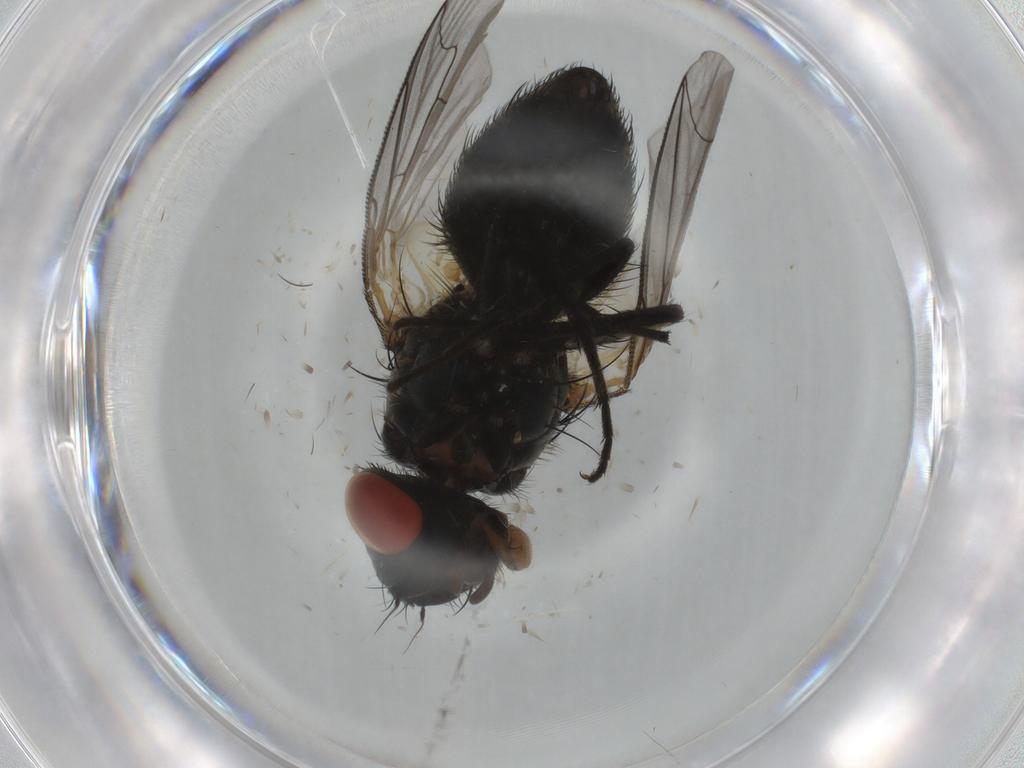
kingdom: Animalia
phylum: Arthropoda
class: Insecta
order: Diptera
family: Sarcophagidae
